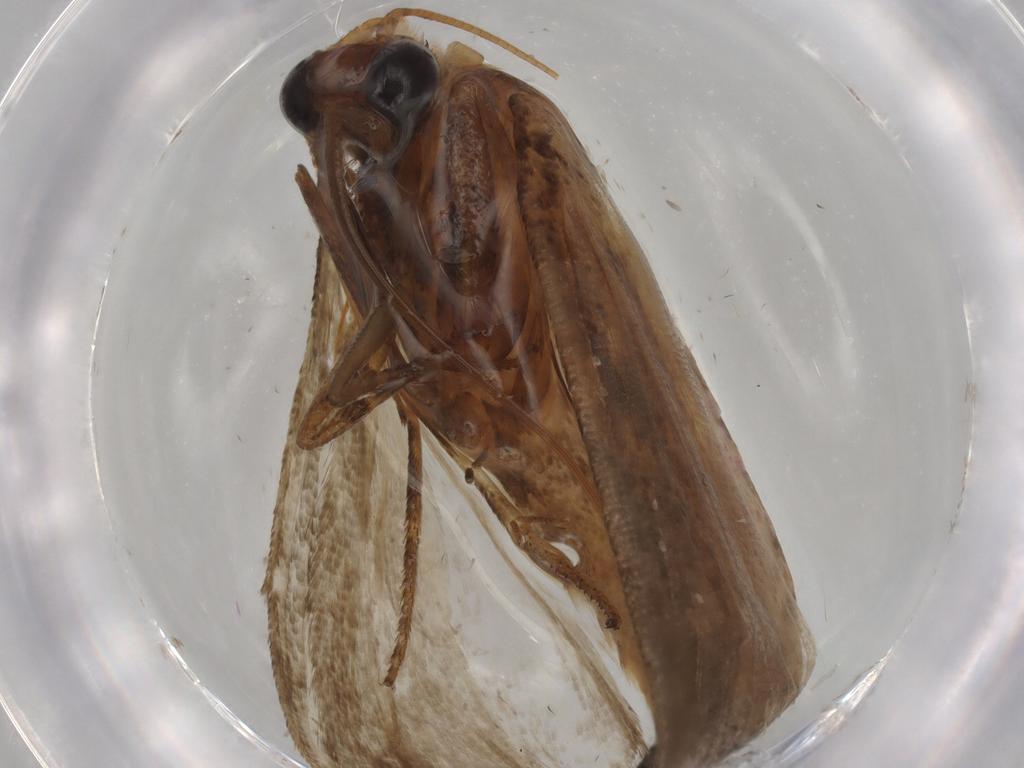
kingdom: Animalia
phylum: Arthropoda
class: Insecta
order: Lepidoptera
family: Pyralidae
